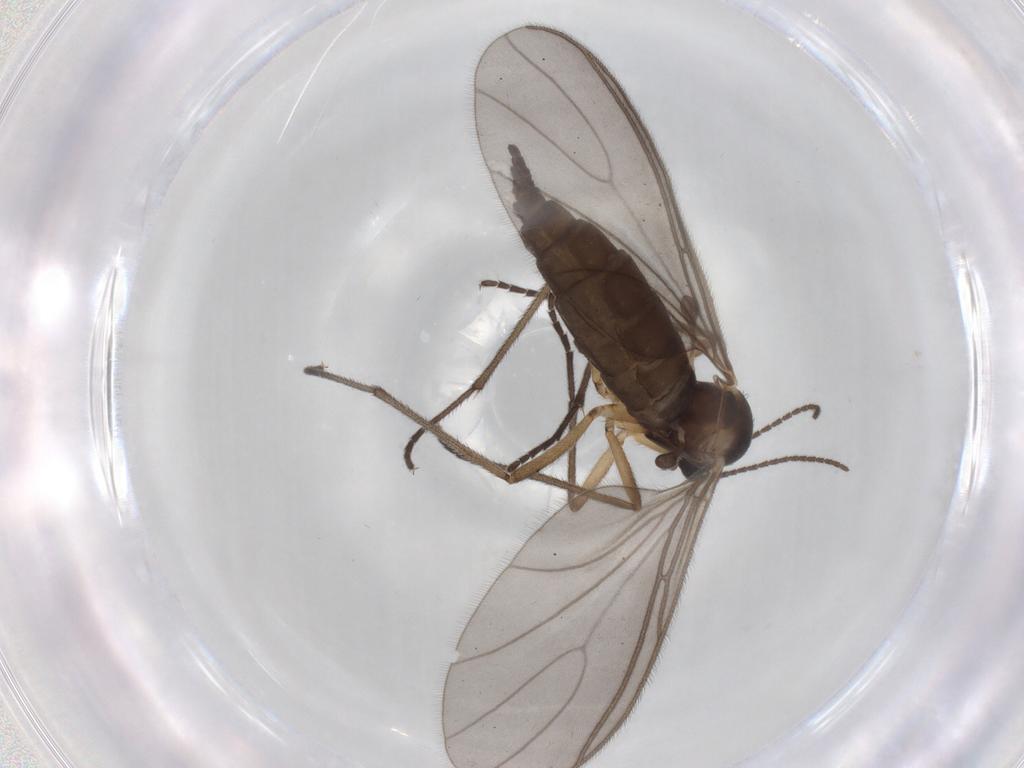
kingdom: Animalia
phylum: Arthropoda
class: Insecta
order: Diptera
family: Sciaridae
